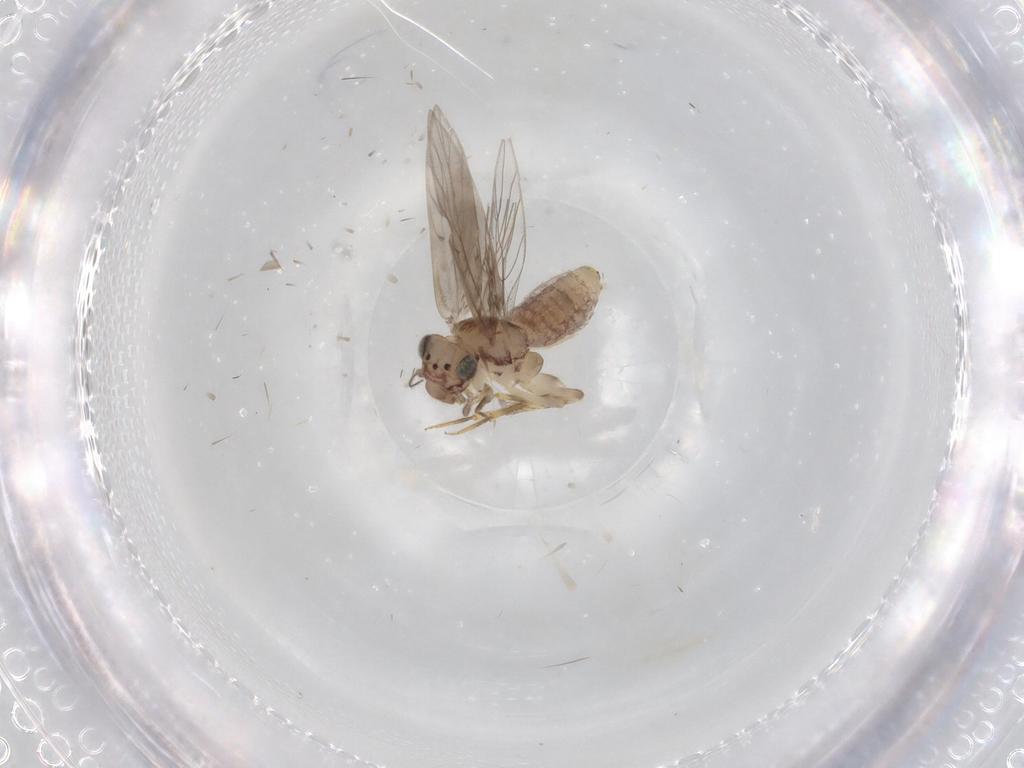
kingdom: Animalia
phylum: Arthropoda
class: Insecta
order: Psocodea
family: Lepidopsocidae
